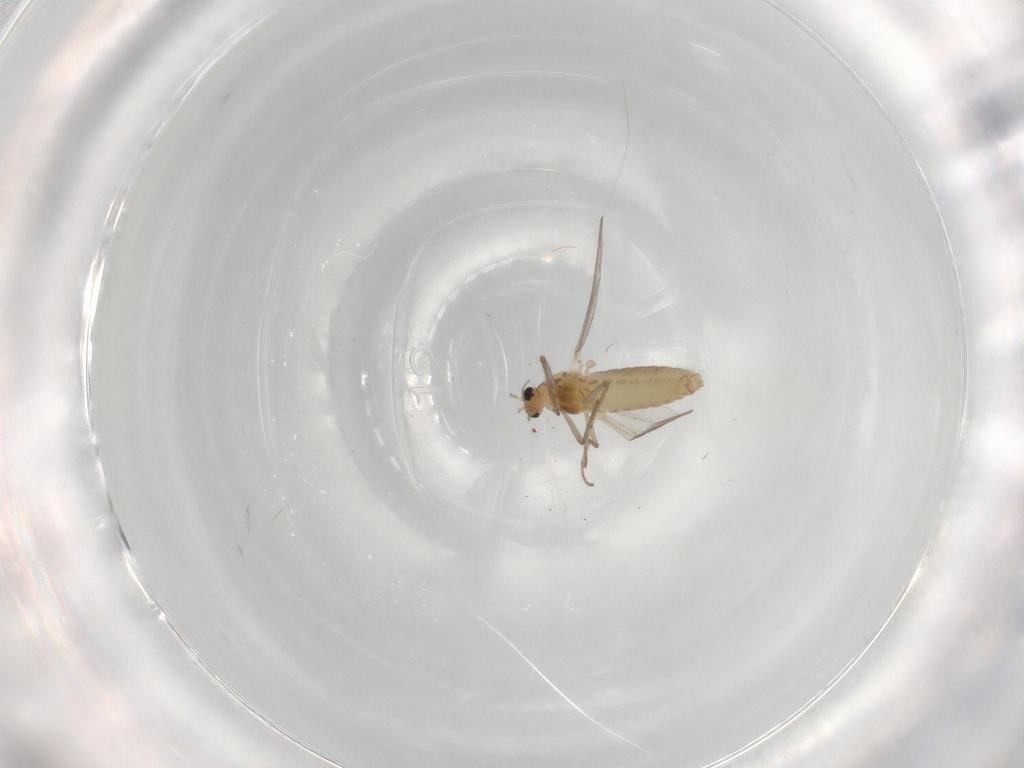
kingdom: Animalia
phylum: Arthropoda
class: Insecta
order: Diptera
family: Chironomidae
